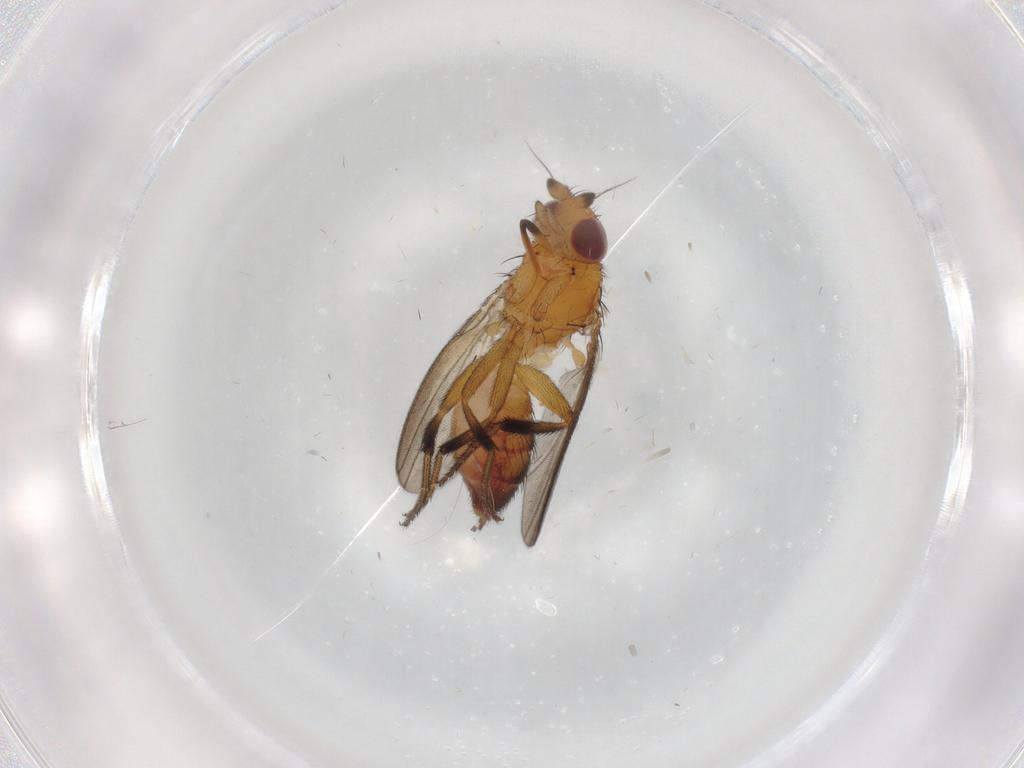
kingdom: Animalia
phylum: Arthropoda
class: Insecta
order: Diptera
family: Milichiidae
